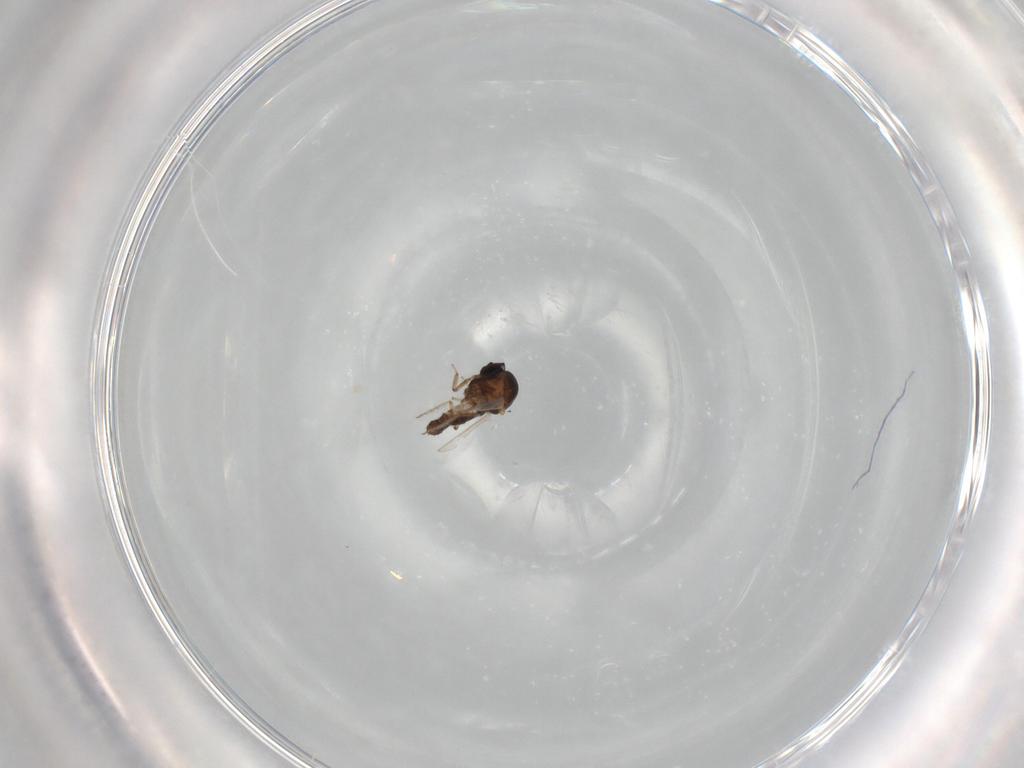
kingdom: Animalia
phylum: Arthropoda
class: Insecta
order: Diptera
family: Ceratopogonidae
